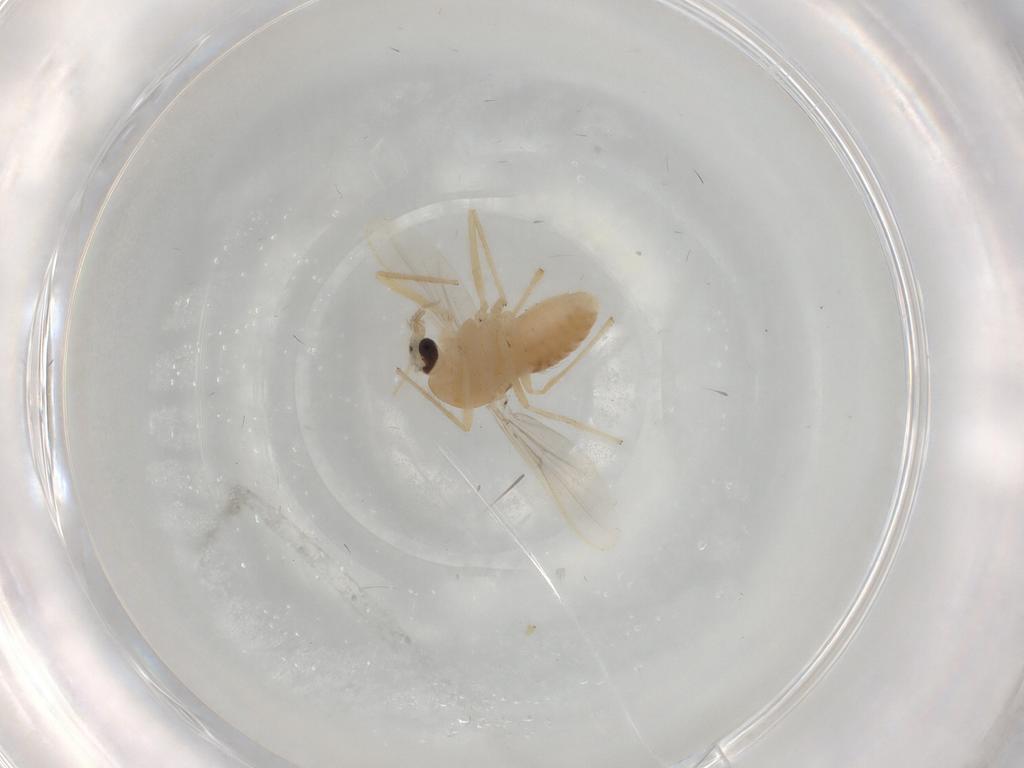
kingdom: Animalia
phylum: Arthropoda
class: Insecta
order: Diptera
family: Chironomidae
